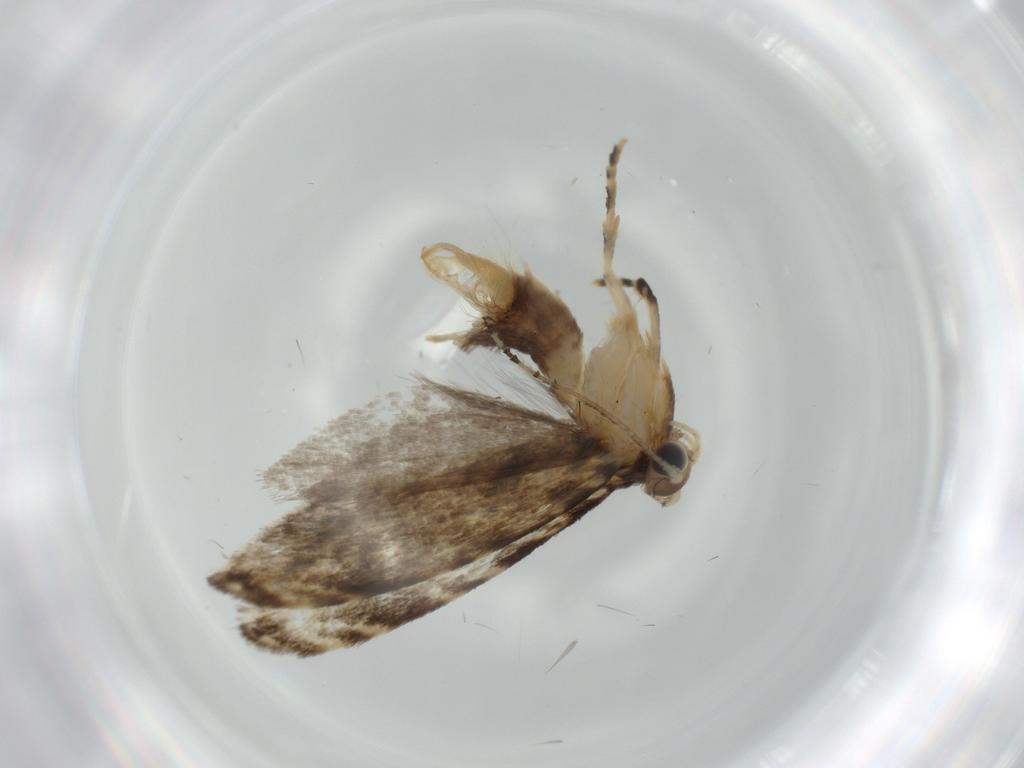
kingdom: Animalia
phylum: Arthropoda
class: Insecta
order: Lepidoptera
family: Tineidae
